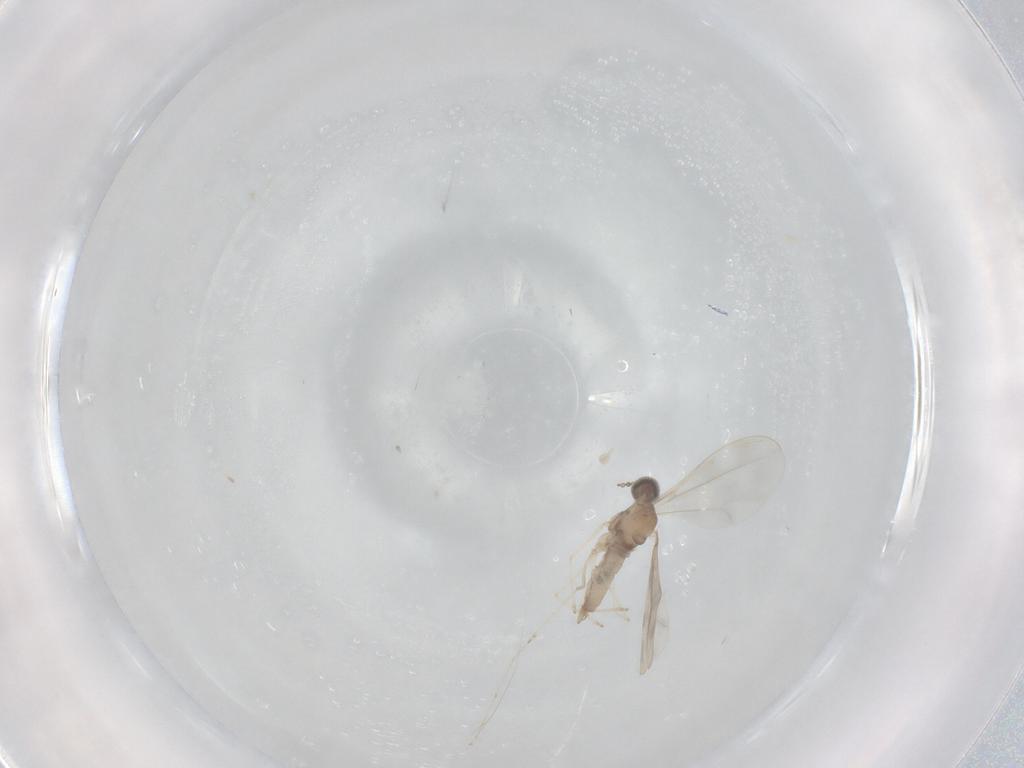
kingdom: Animalia
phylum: Arthropoda
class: Insecta
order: Diptera
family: Cecidomyiidae
